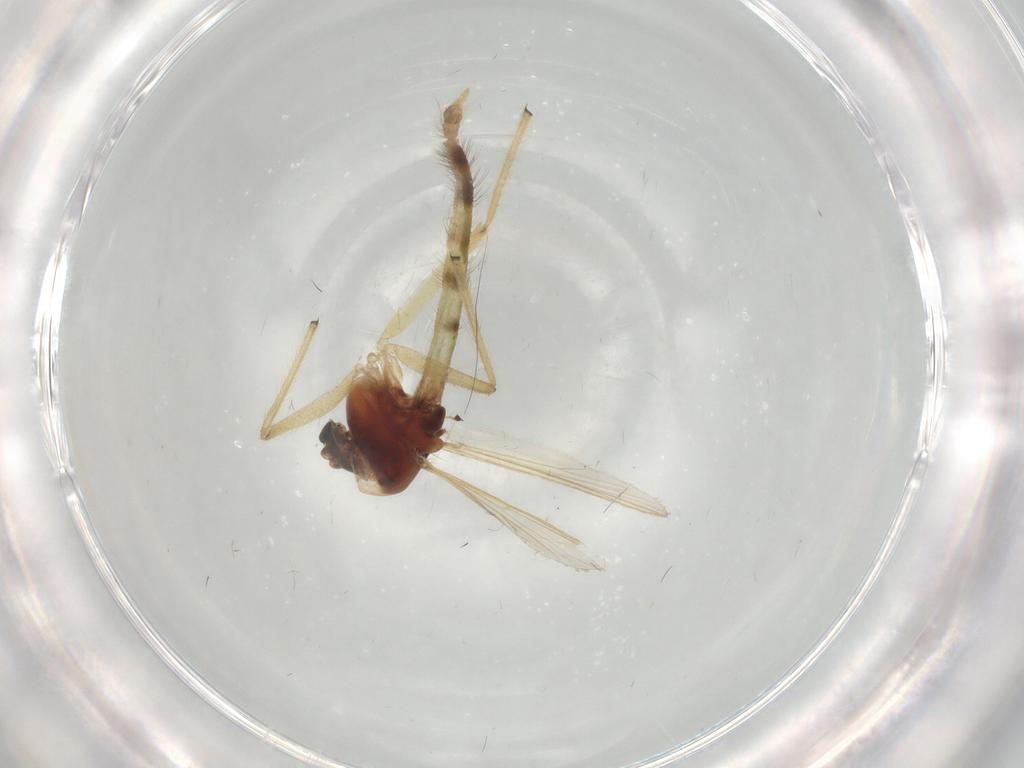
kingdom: Animalia
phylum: Arthropoda
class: Insecta
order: Diptera
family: Chironomidae
